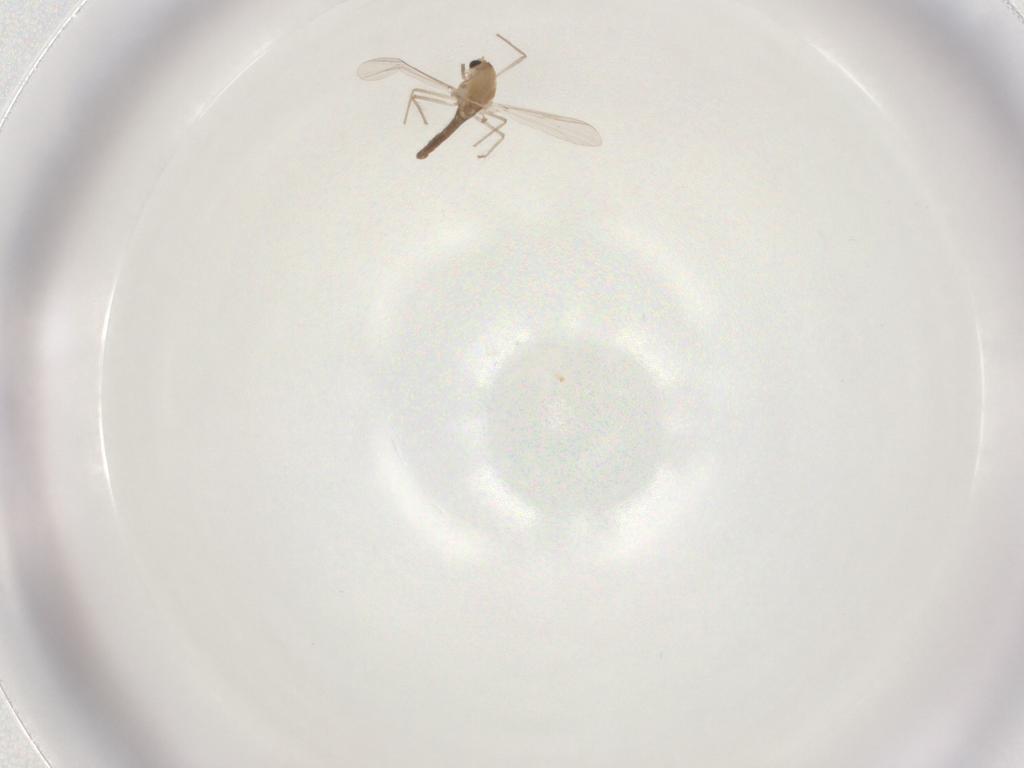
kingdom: Animalia
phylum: Arthropoda
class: Insecta
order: Diptera
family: Chironomidae
